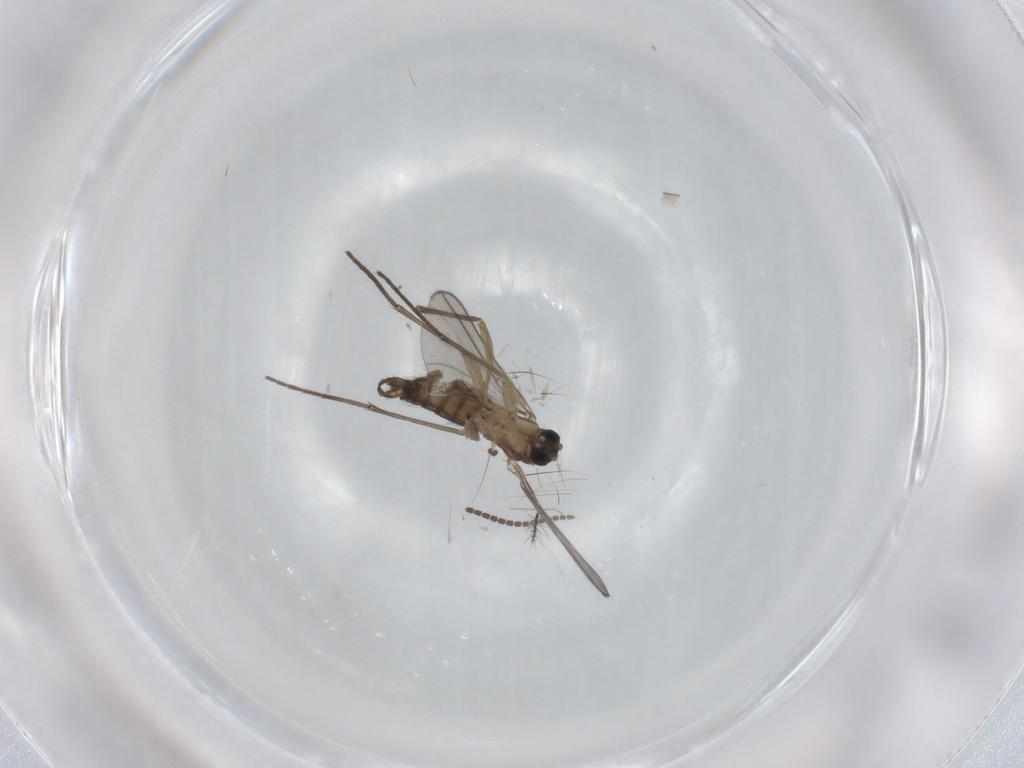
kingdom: Animalia
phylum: Arthropoda
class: Insecta
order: Diptera
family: Sciaridae
